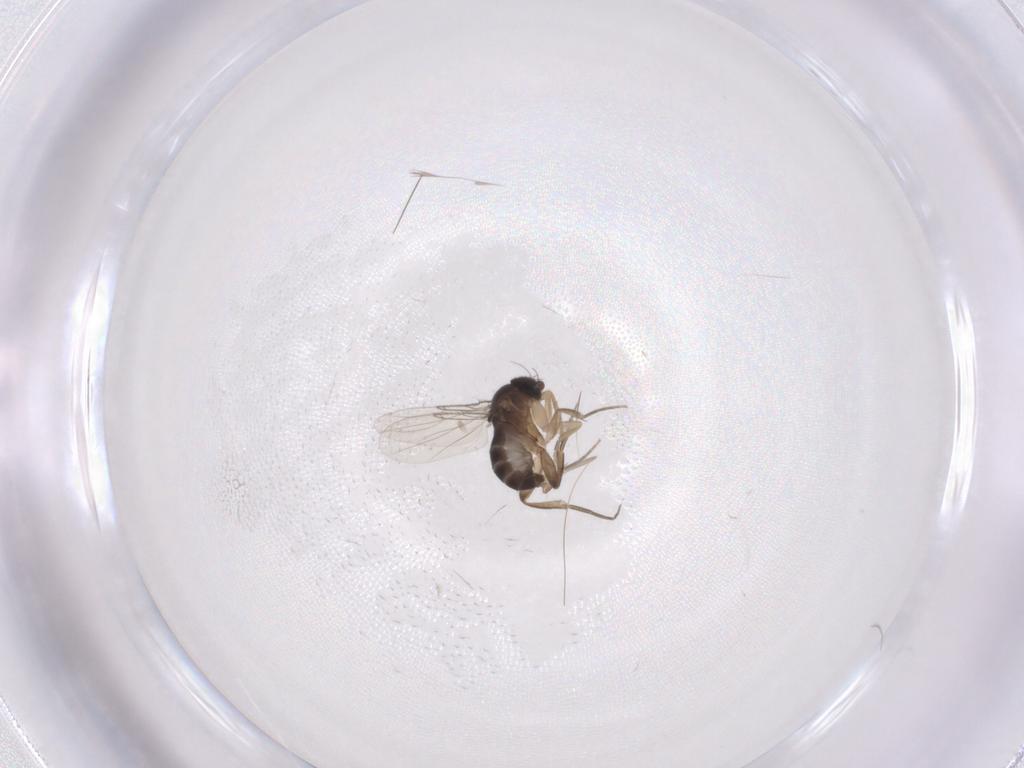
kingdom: Animalia
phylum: Arthropoda
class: Insecta
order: Diptera
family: Phoridae
